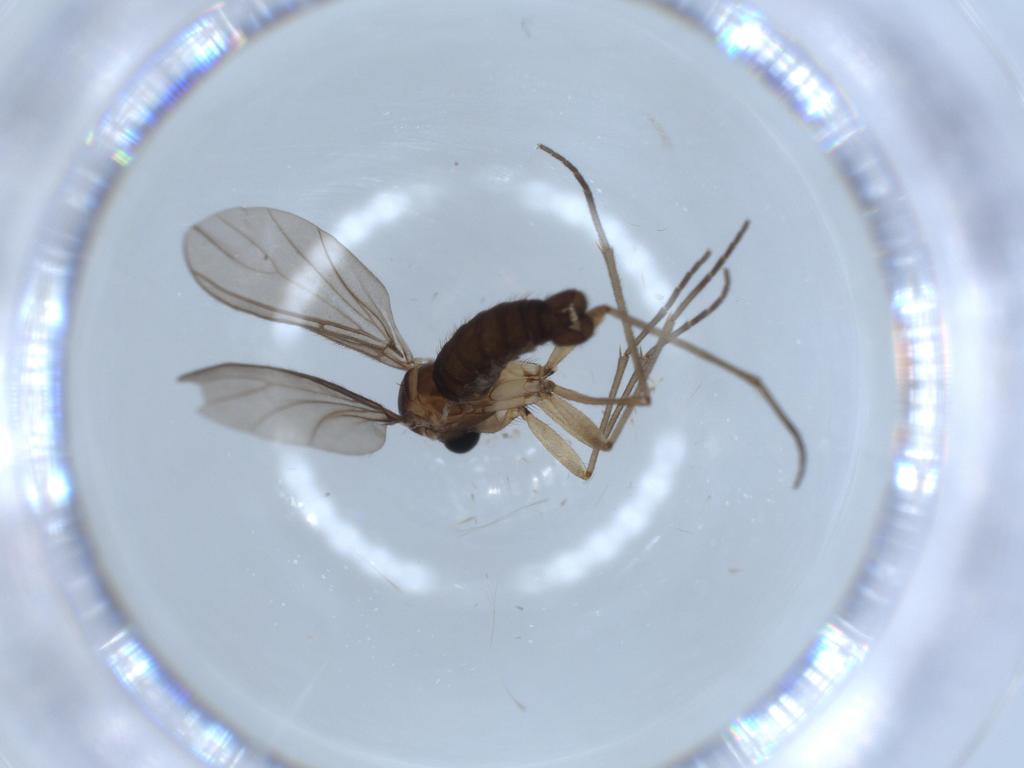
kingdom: Animalia
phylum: Arthropoda
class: Insecta
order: Diptera
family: Sciaridae
